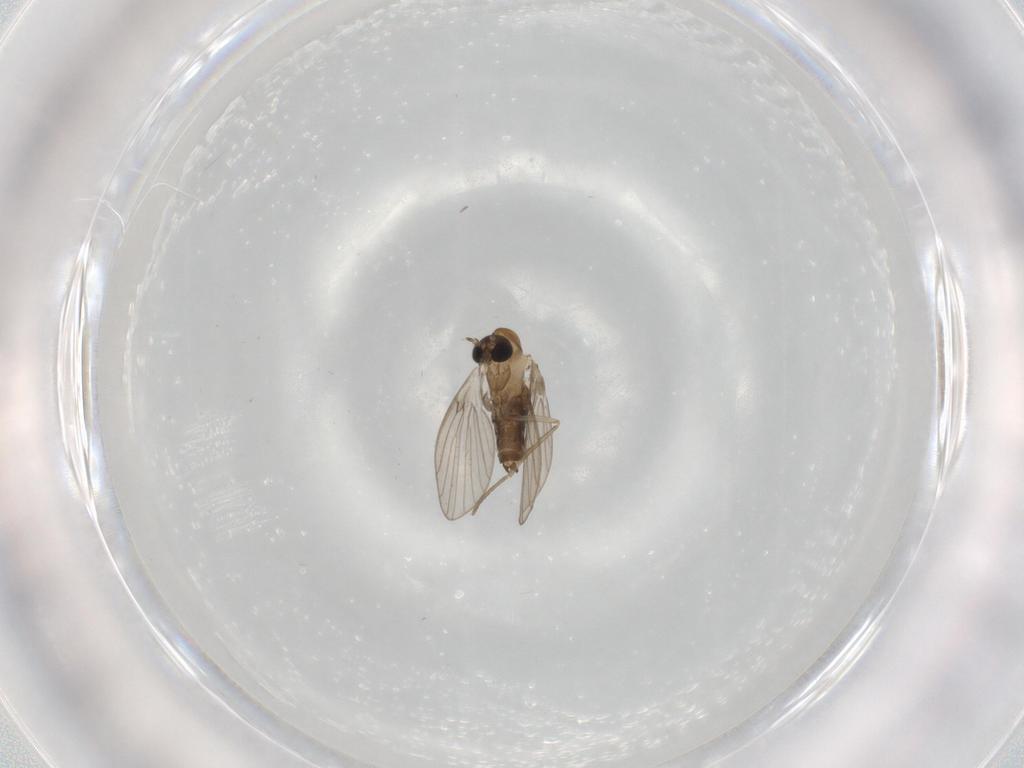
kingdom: Animalia
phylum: Arthropoda
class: Insecta
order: Diptera
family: Psychodidae
